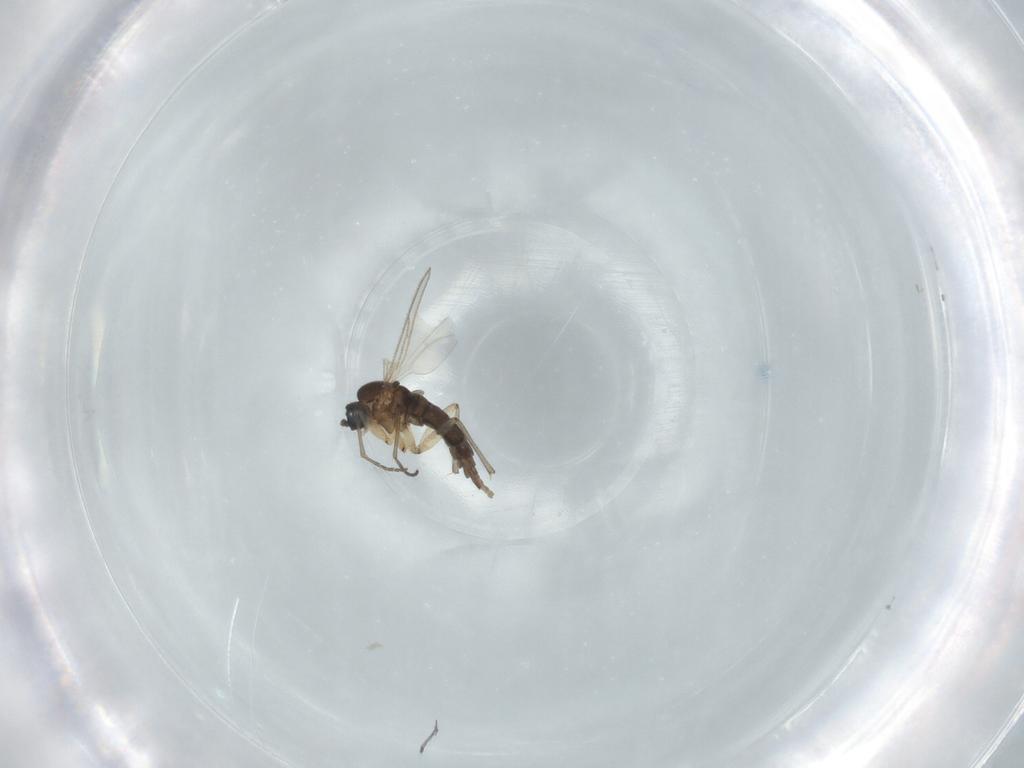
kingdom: Animalia
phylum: Arthropoda
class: Insecta
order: Diptera
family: Sciaridae
